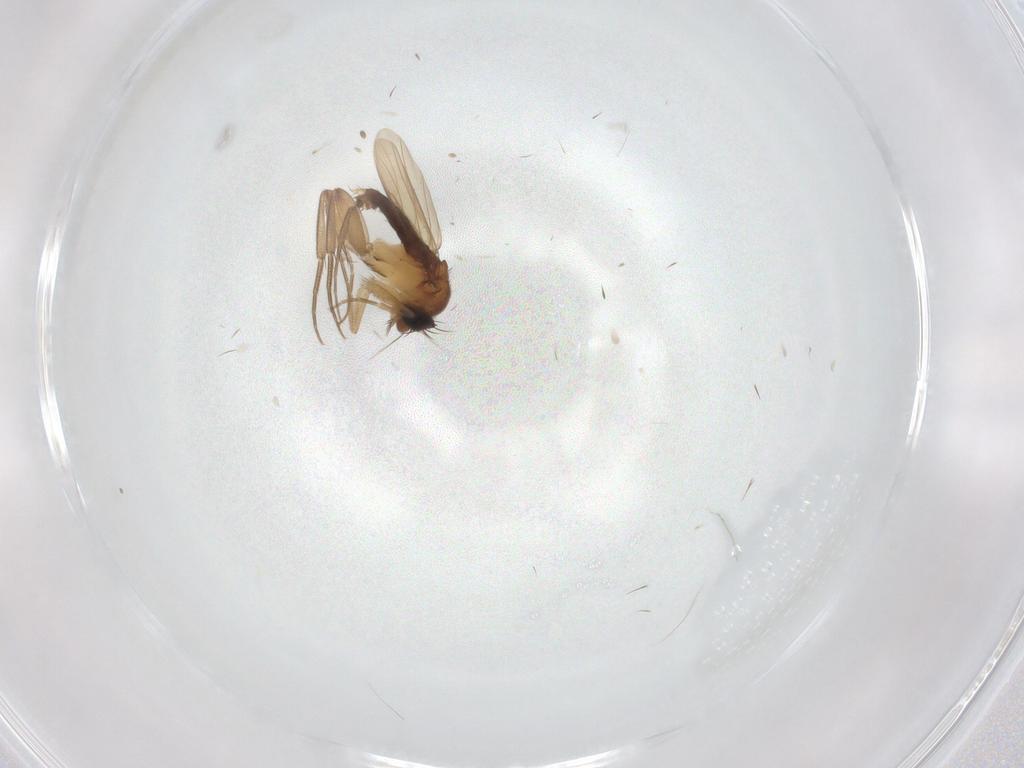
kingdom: Animalia
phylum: Arthropoda
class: Insecta
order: Diptera
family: Phoridae
